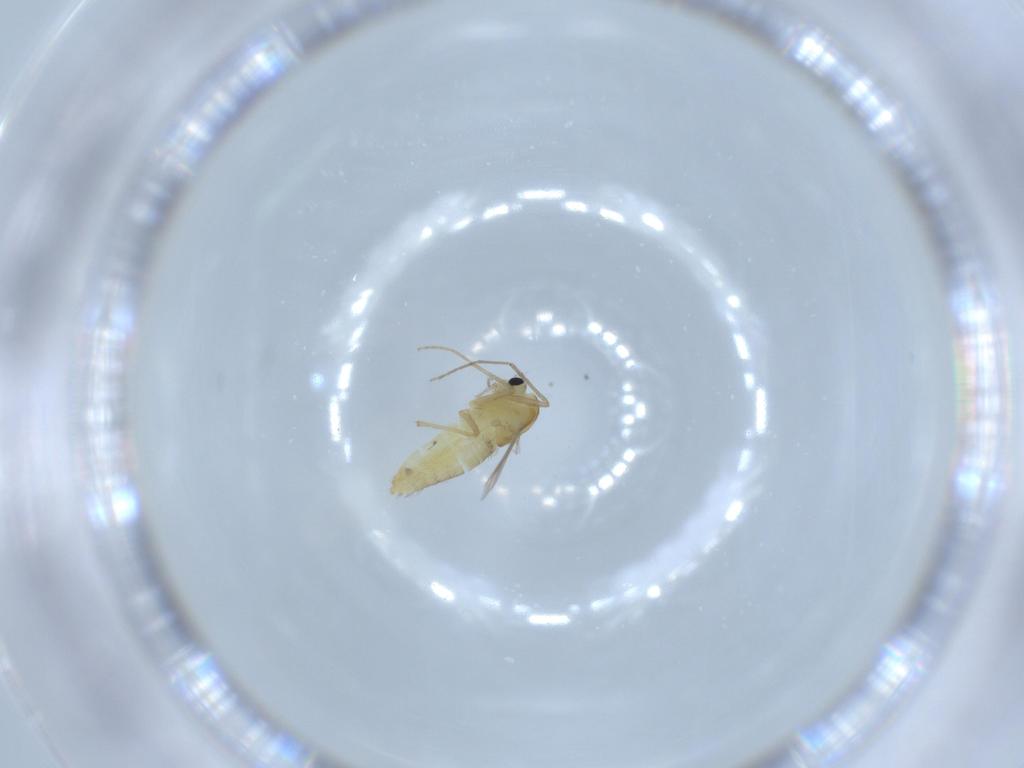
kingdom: Animalia
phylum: Arthropoda
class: Insecta
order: Diptera
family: Chironomidae
